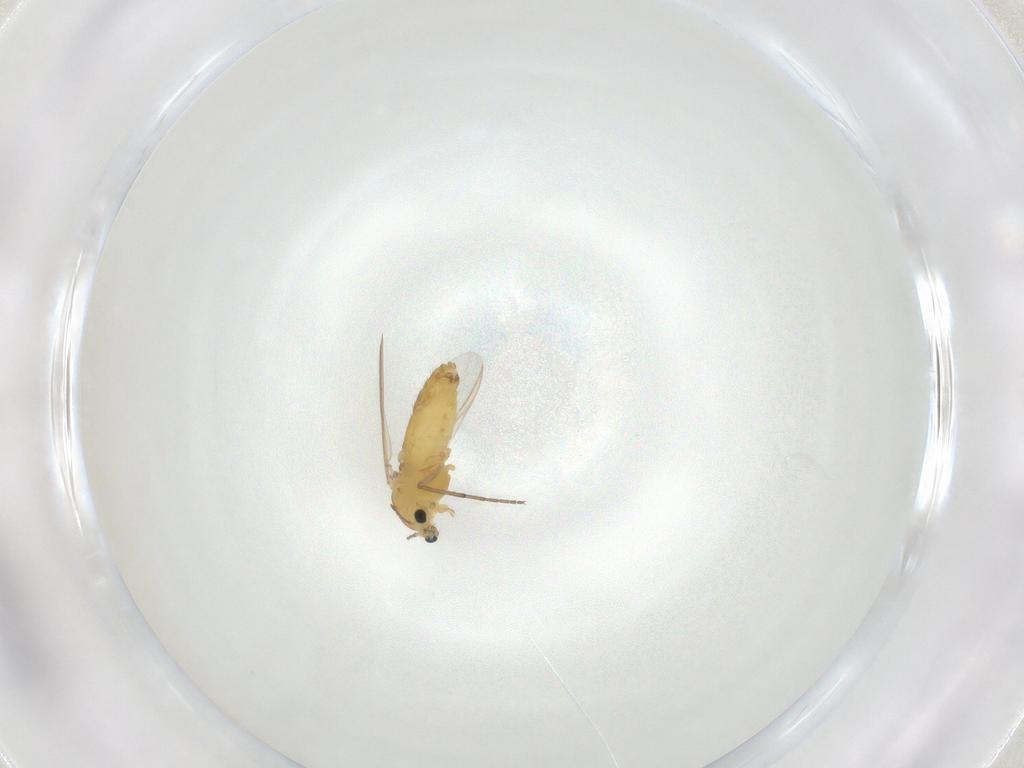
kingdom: Animalia
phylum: Arthropoda
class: Insecta
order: Diptera
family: Chironomidae
